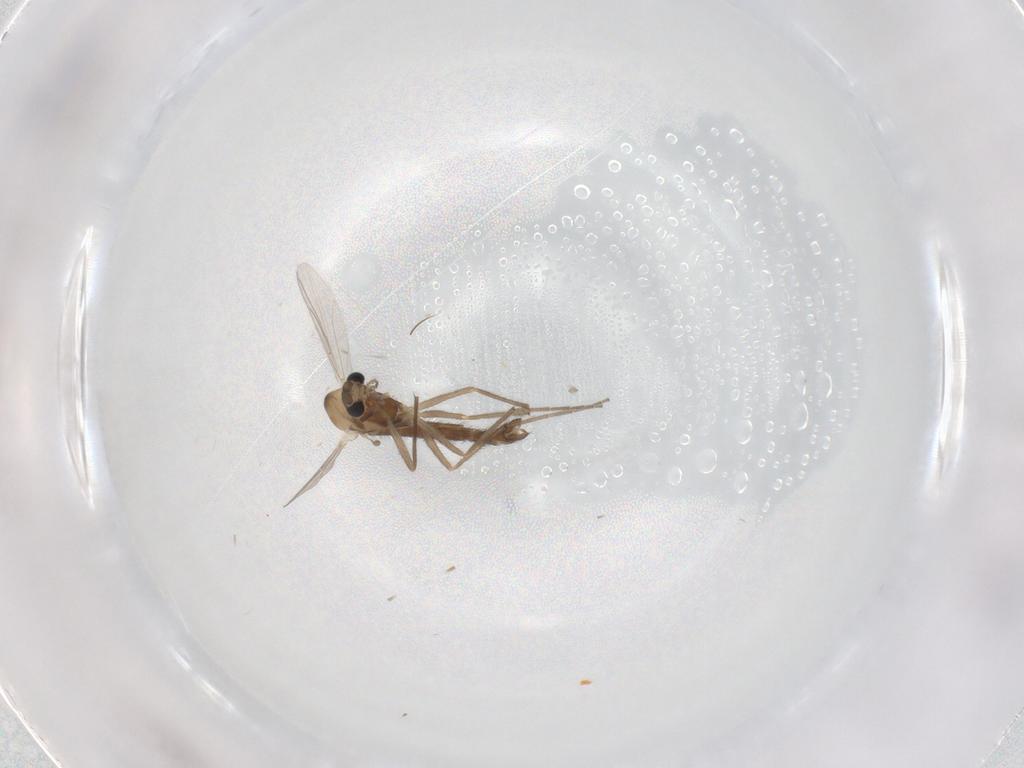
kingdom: Animalia
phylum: Arthropoda
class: Insecta
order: Diptera
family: Chironomidae
